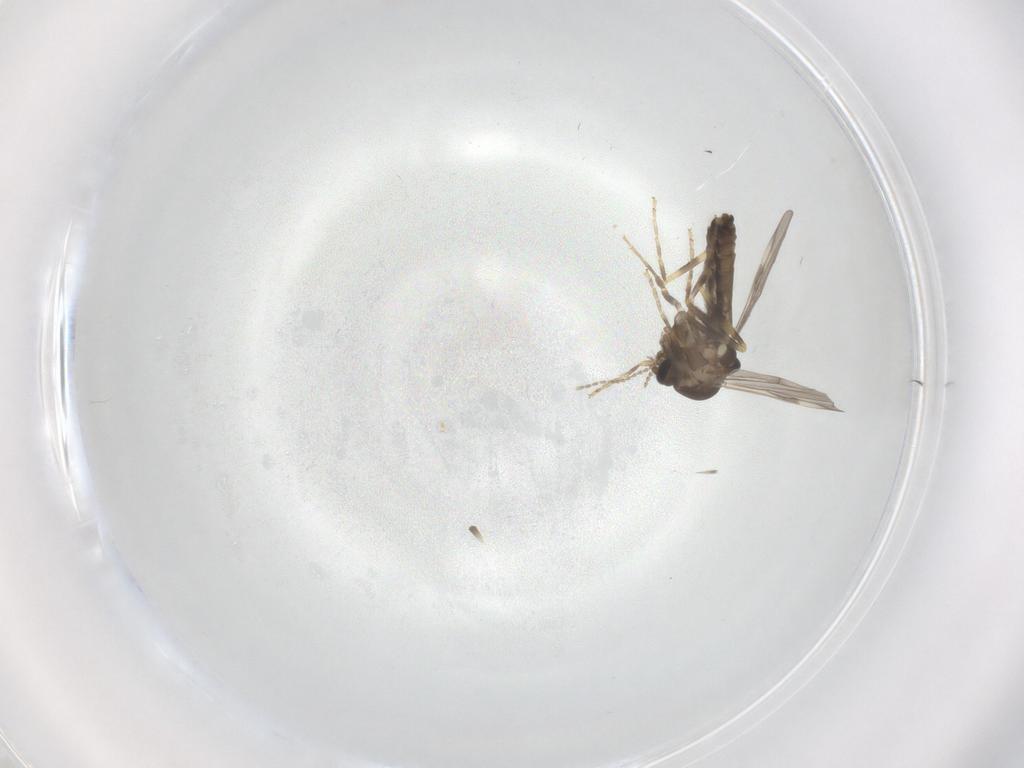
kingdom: Animalia
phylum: Arthropoda
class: Insecta
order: Diptera
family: Ceratopogonidae
